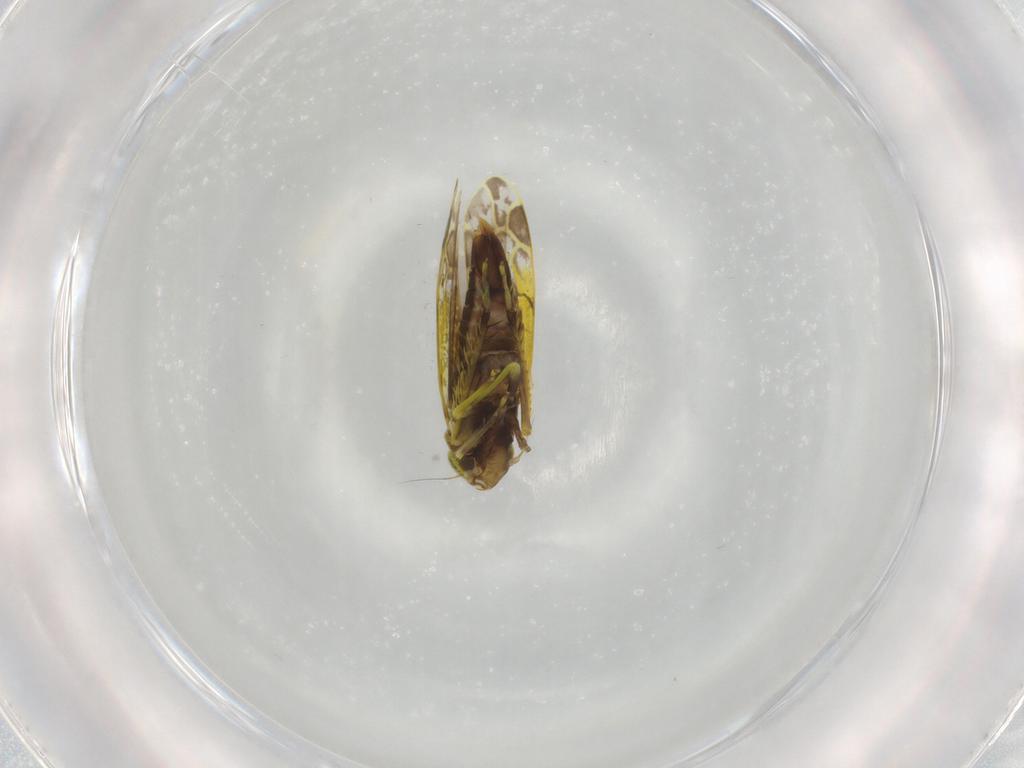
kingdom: Animalia
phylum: Arthropoda
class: Insecta
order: Hemiptera
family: Cicadellidae
